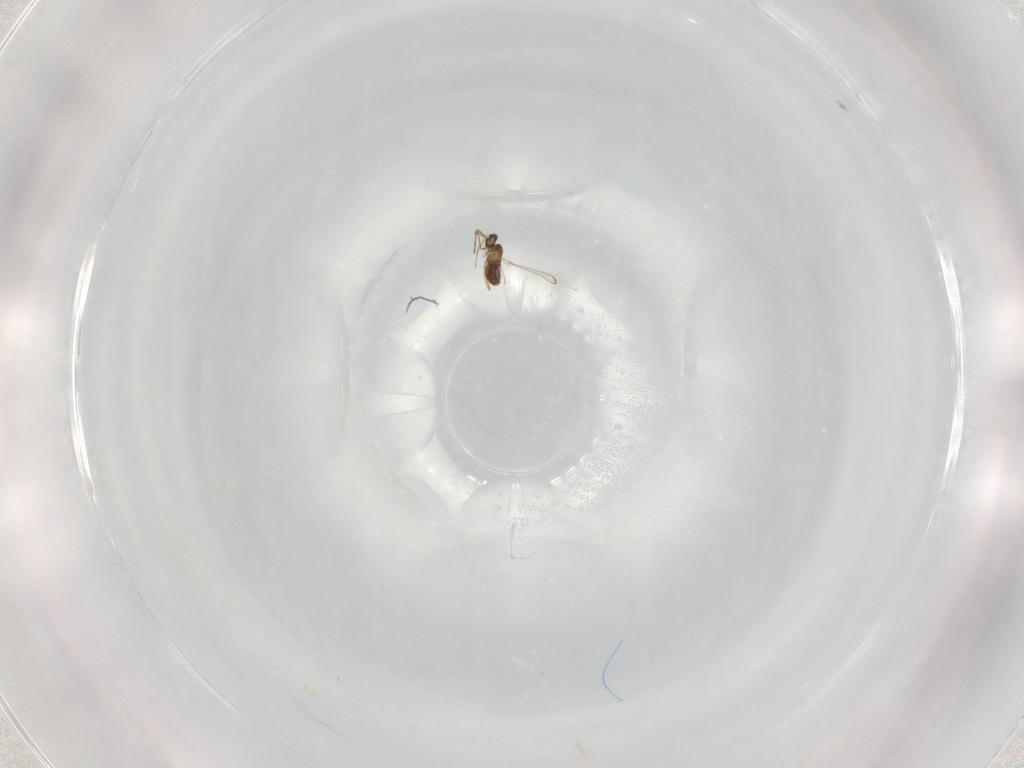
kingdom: Animalia
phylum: Arthropoda
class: Insecta
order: Hymenoptera
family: Mymaridae
